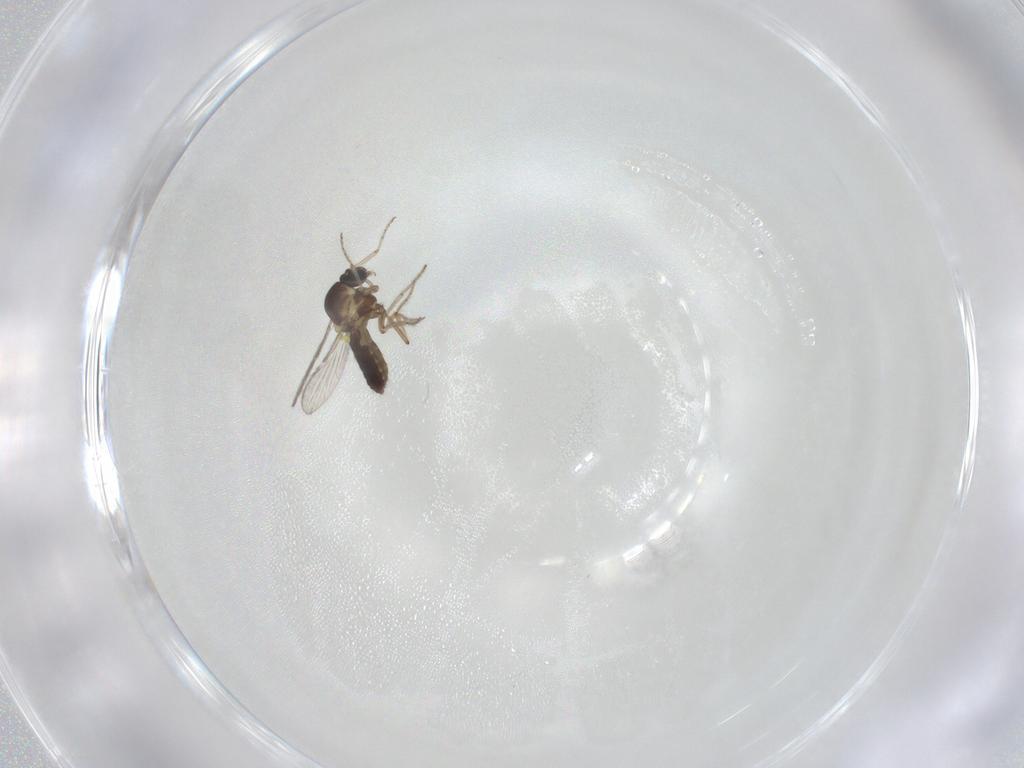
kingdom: Animalia
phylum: Arthropoda
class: Insecta
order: Diptera
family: Ceratopogonidae
